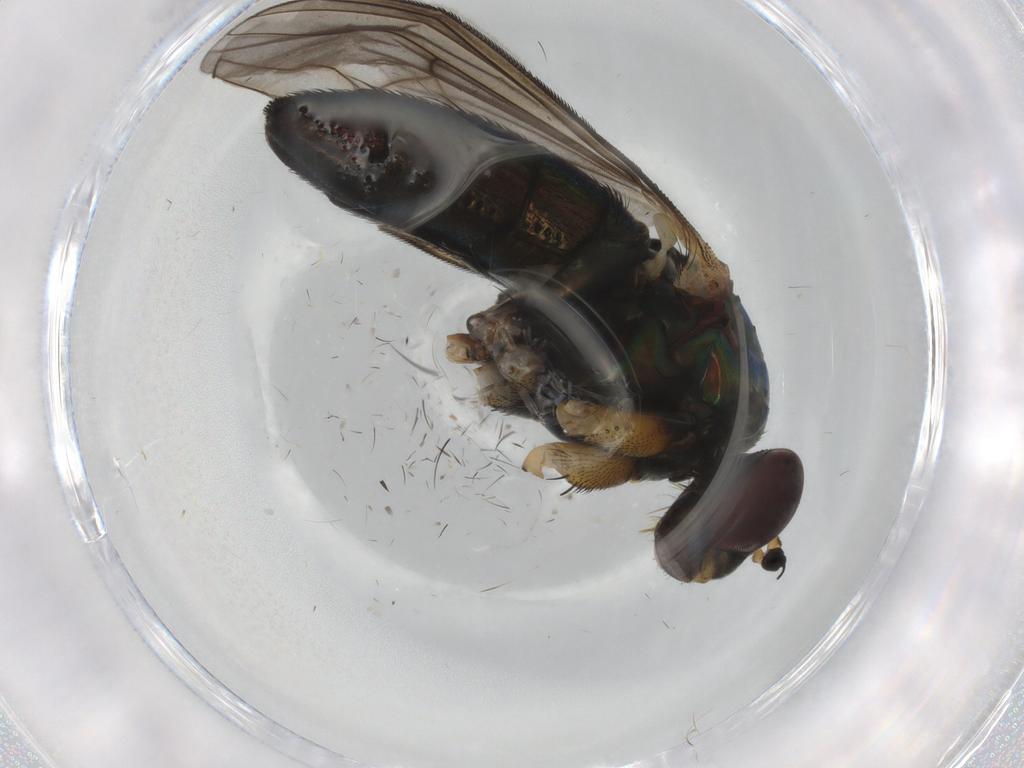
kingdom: Animalia
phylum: Arthropoda
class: Insecta
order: Diptera
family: Dolichopodidae
